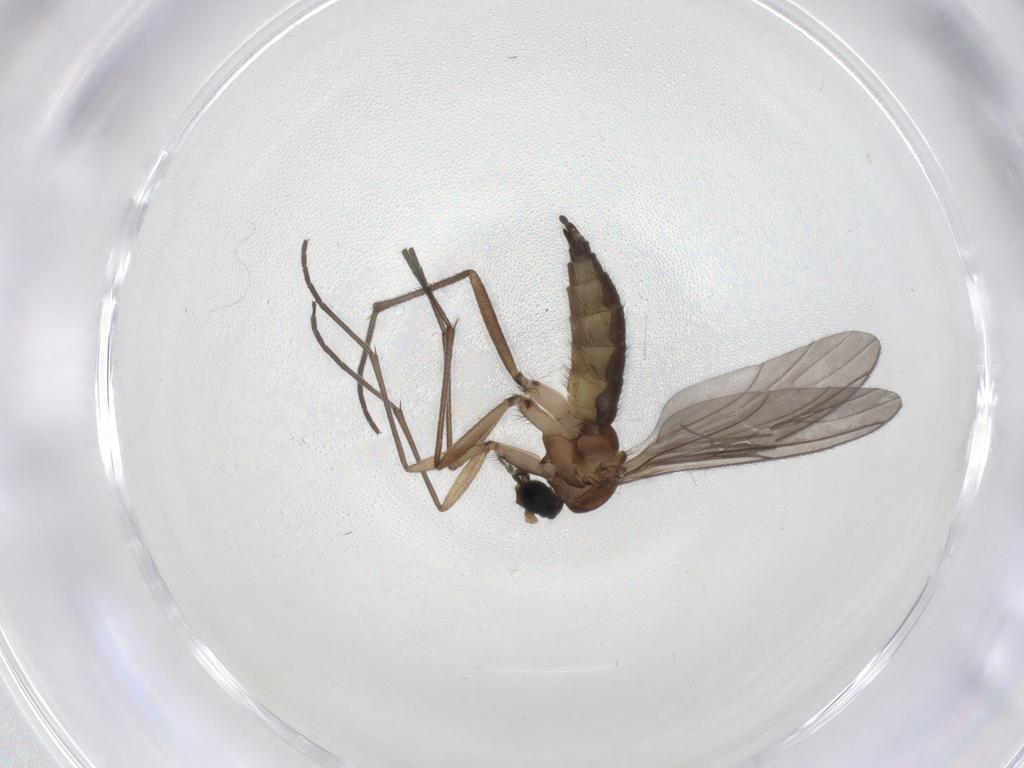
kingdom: Animalia
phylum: Arthropoda
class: Insecta
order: Diptera
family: Sciaridae
